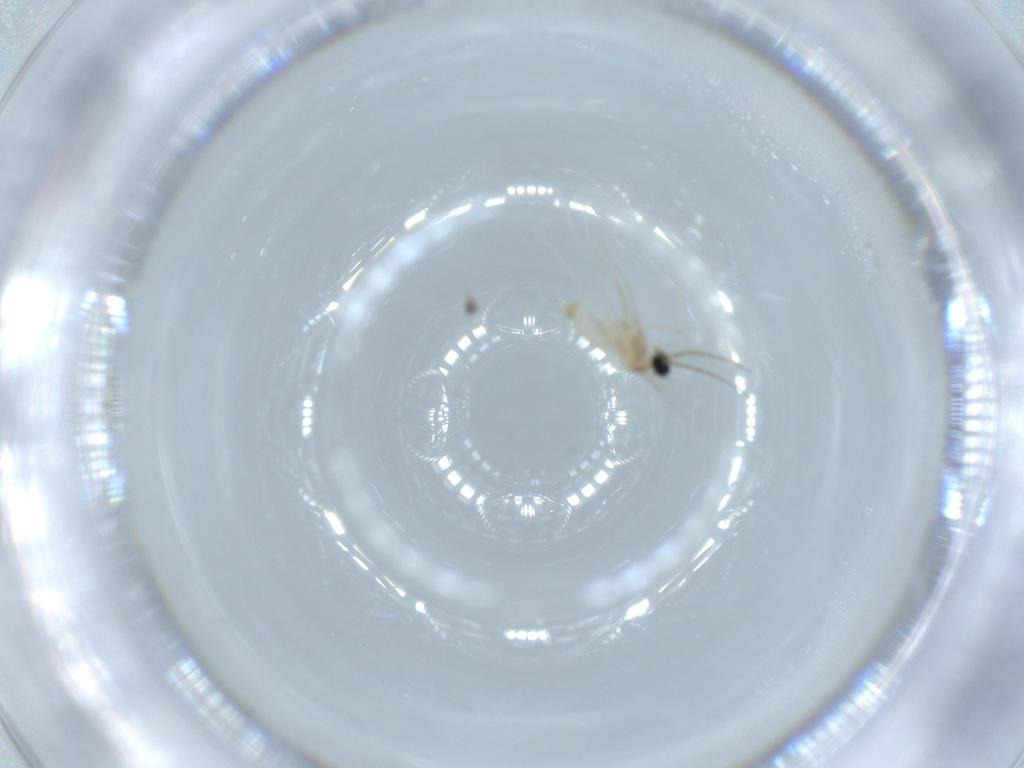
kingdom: Animalia
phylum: Arthropoda
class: Insecta
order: Diptera
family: Cecidomyiidae
